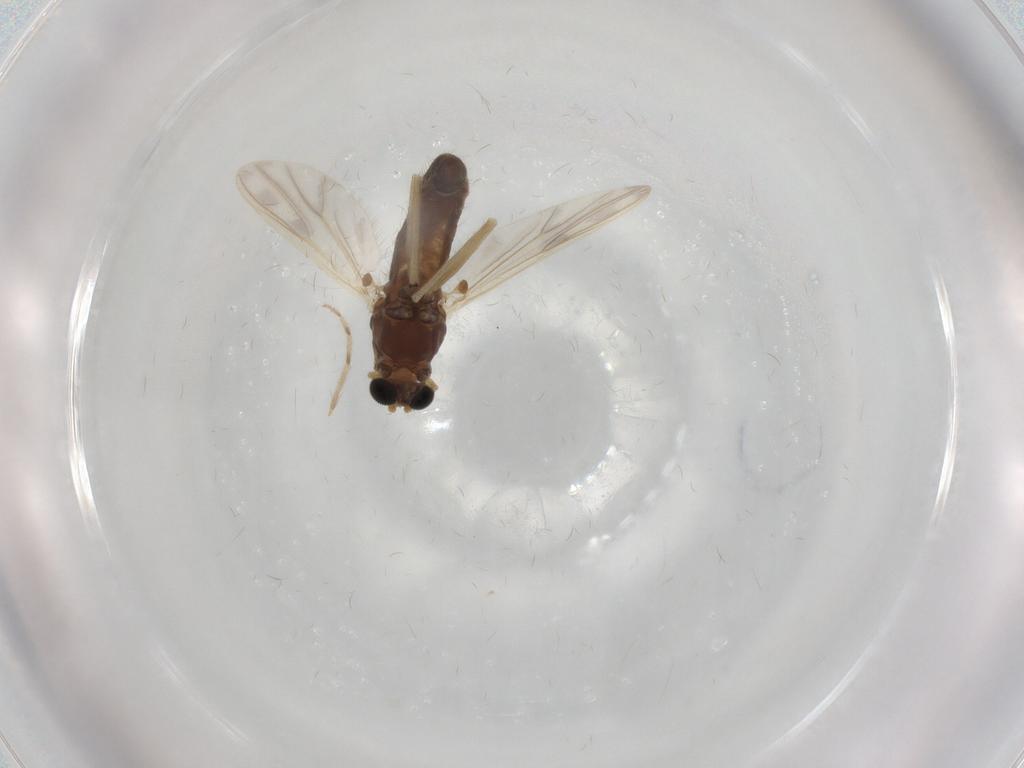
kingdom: Animalia
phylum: Arthropoda
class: Insecta
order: Diptera
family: Chironomidae
